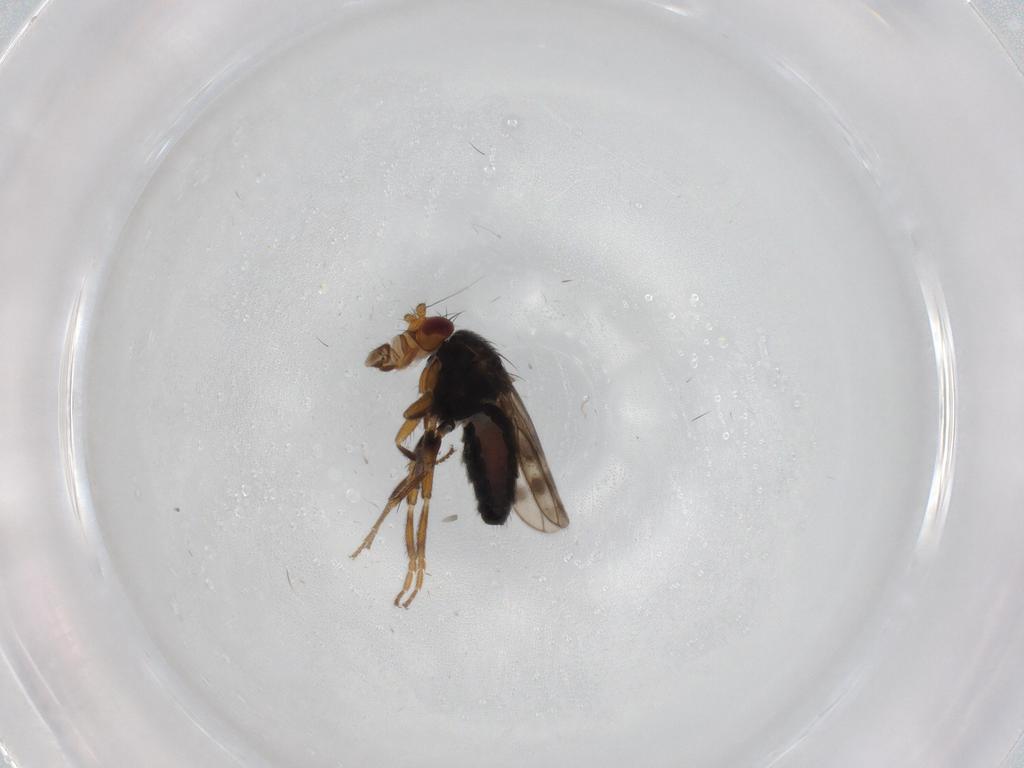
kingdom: Animalia
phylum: Arthropoda
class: Insecta
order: Diptera
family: Sphaeroceridae
